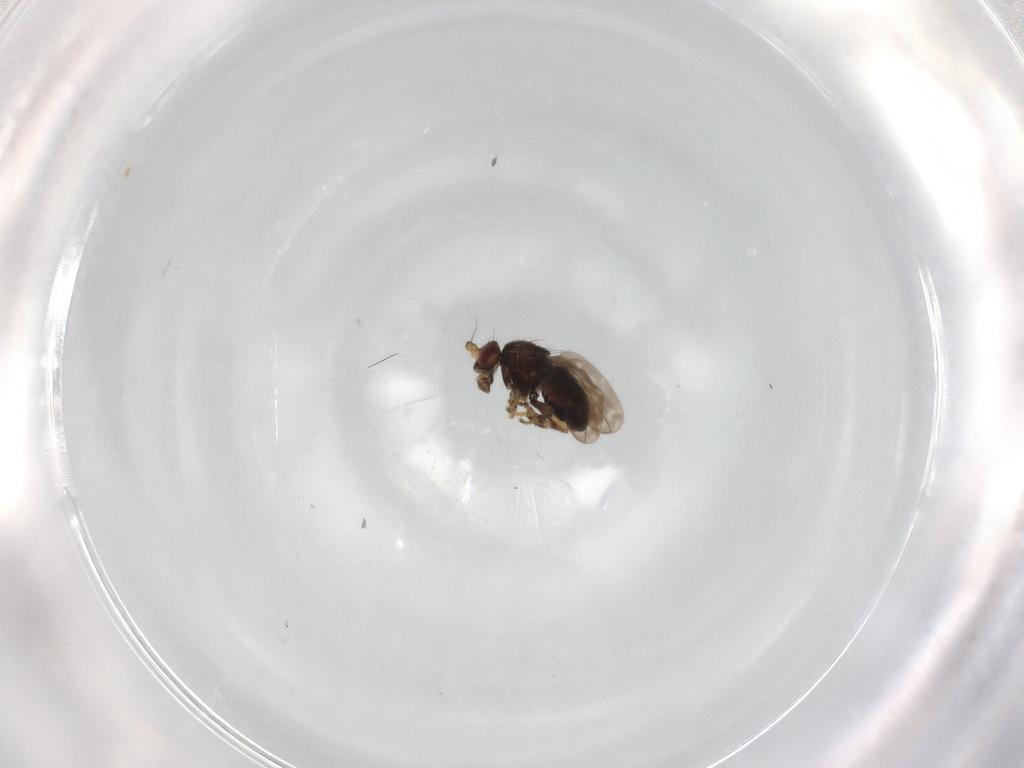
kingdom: Animalia
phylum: Arthropoda
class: Insecta
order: Diptera
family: Sphaeroceridae
